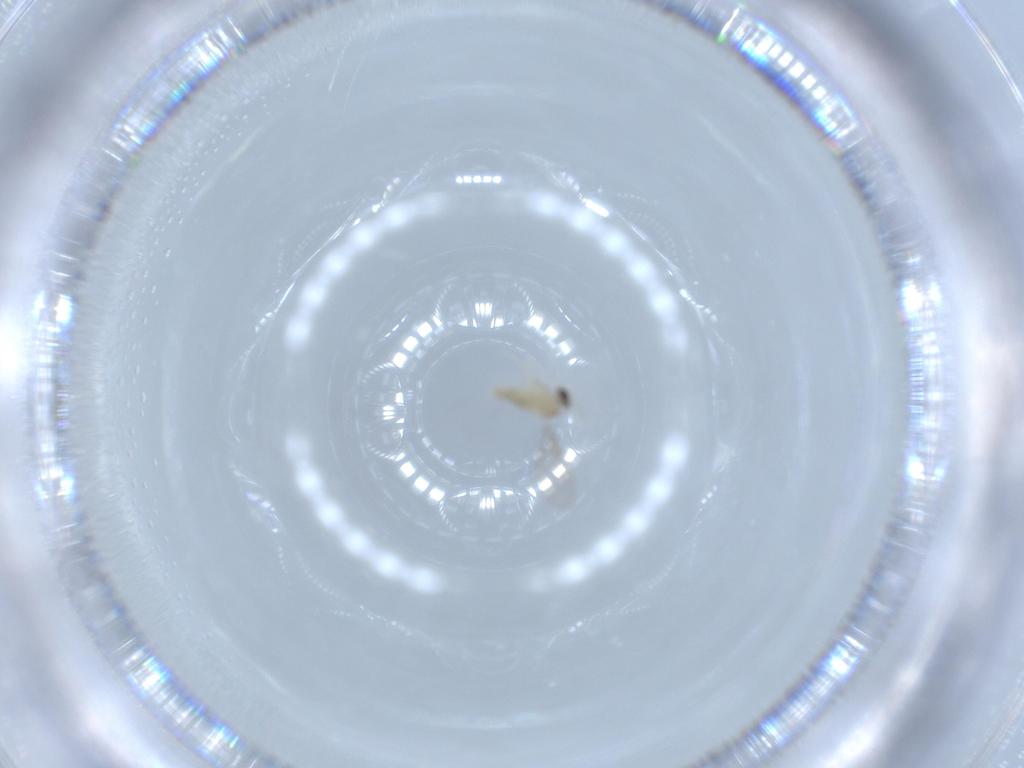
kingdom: Animalia
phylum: Arthropoda
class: Insecta
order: Diptera
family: Cecidomyiidae
